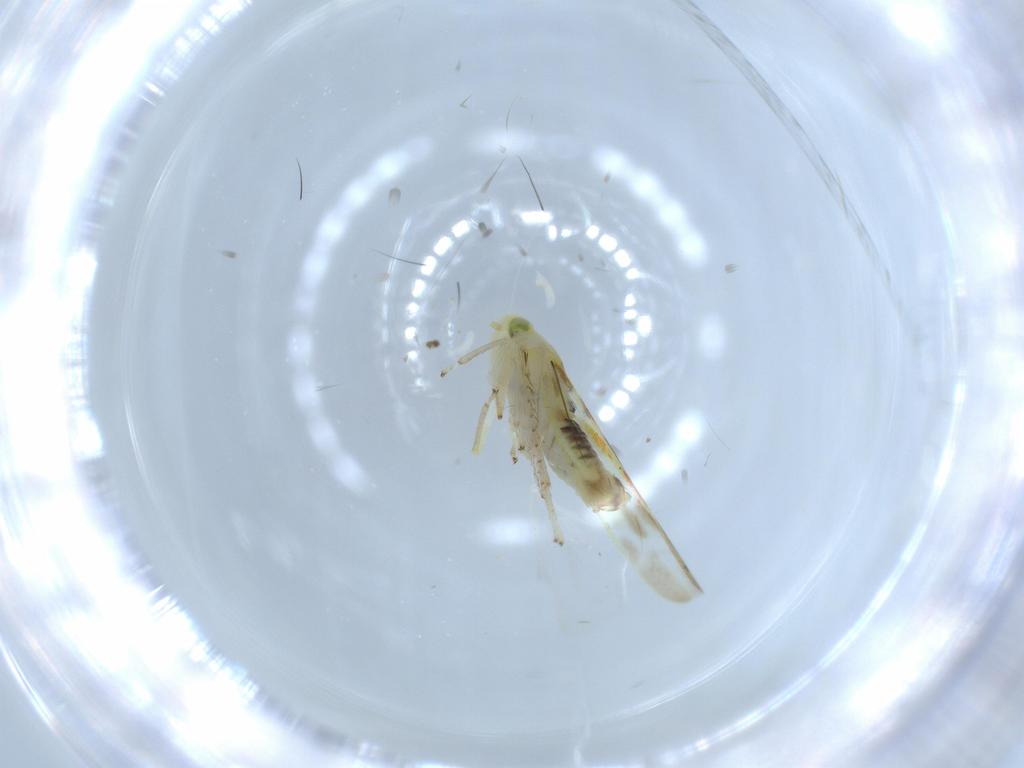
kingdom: Animalia
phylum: Arthropoda
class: Insecta
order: Hemiptera
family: Cicadellidae
